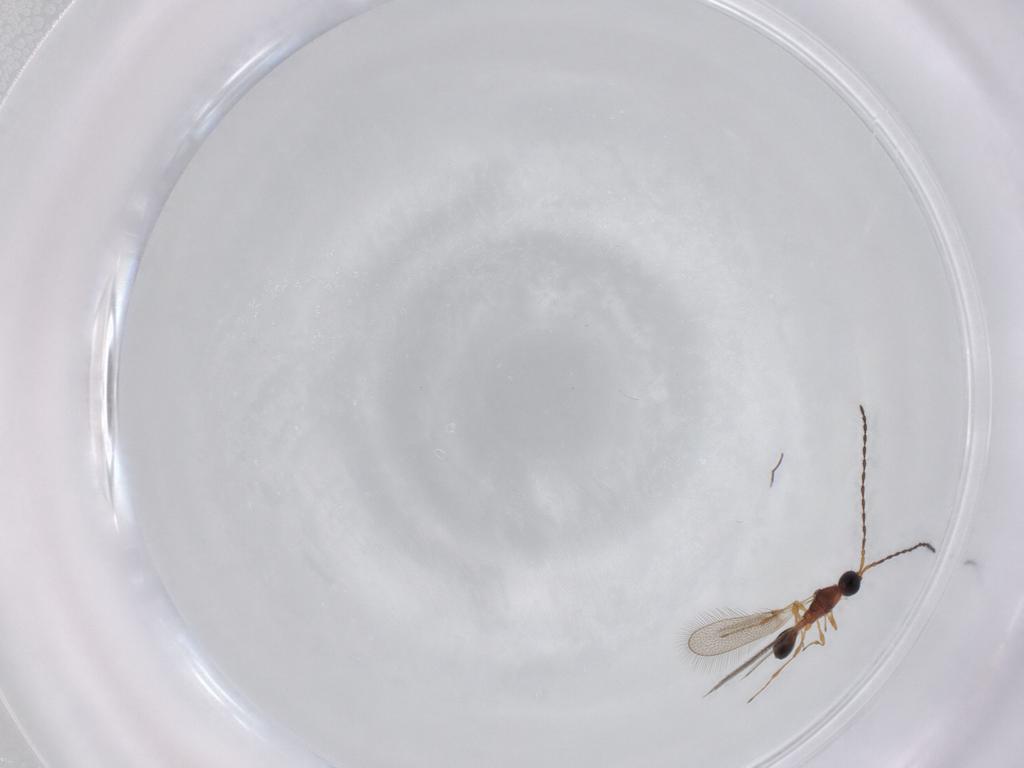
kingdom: Animalia
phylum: Arthropoda
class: Insecta
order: Hymenoptera
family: Diapriidae
